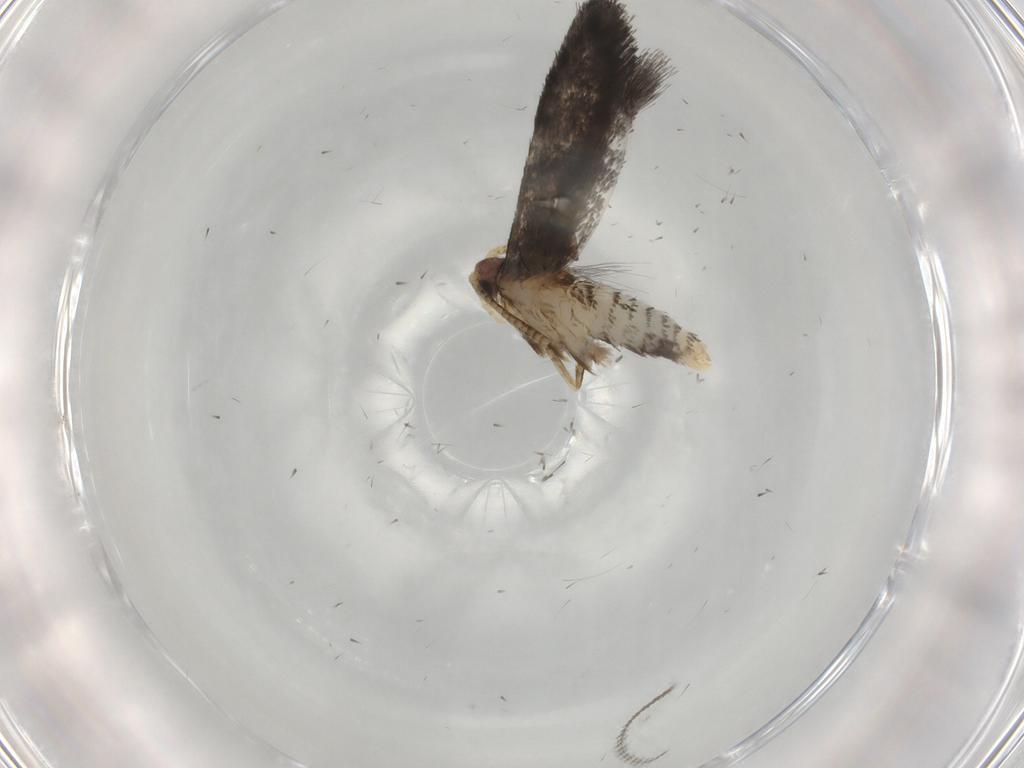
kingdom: Animalia
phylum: Arthropoda
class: Insecta
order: Lepidoptera
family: Tineidae
